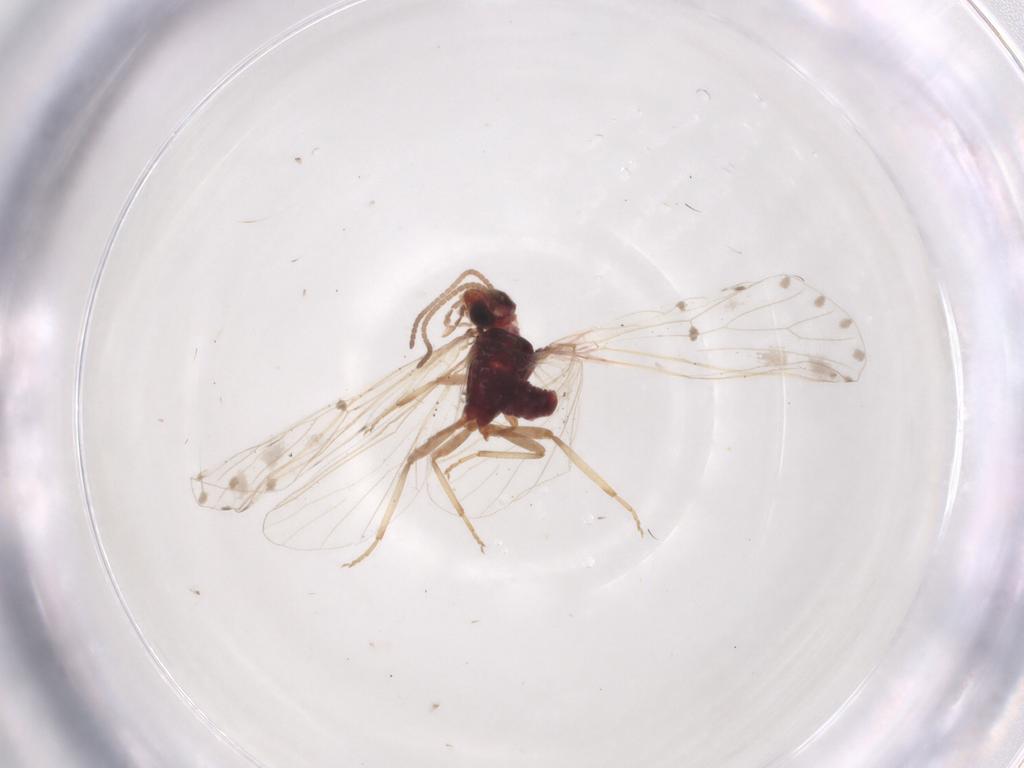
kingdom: Animalia
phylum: Arthropoda
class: Insecta
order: Neuroptera
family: Coniopterygidae
